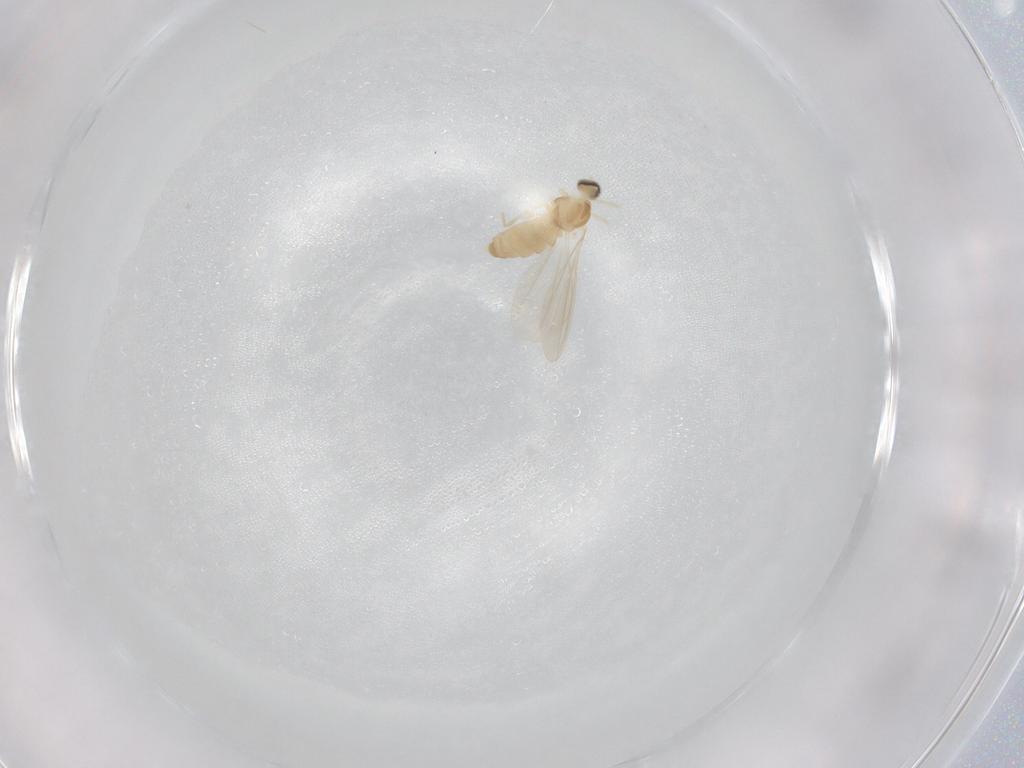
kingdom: Animalia
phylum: Arthropoda
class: Insecta
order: Diptera
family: Cecidomyiidae
